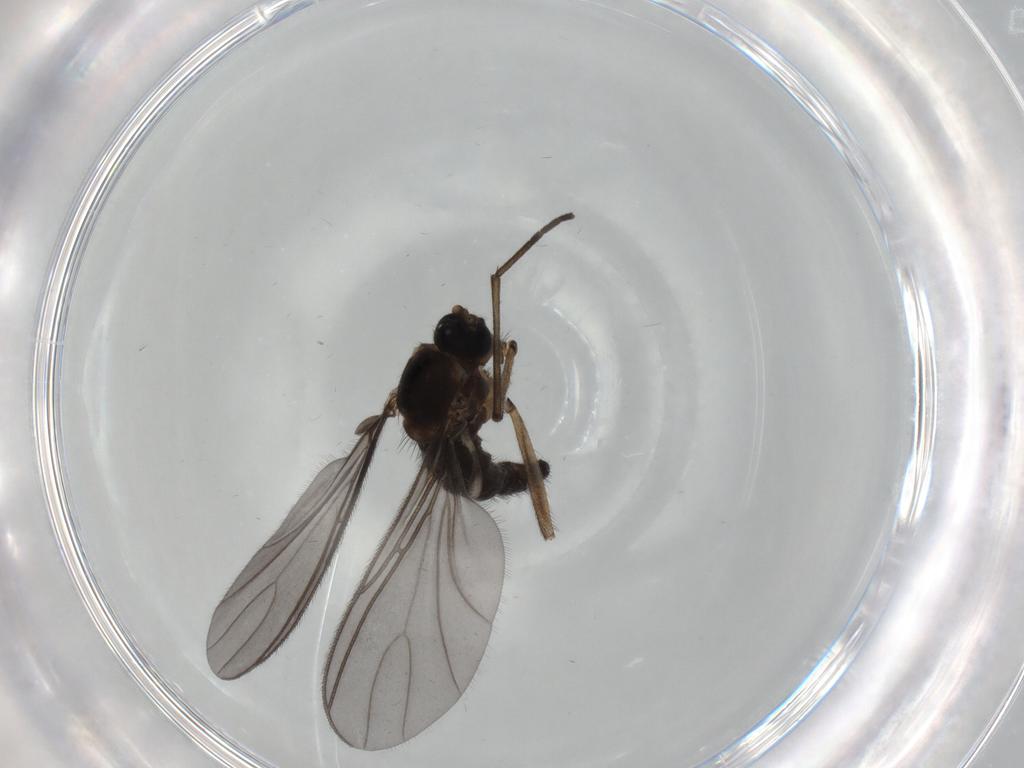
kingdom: Animalia
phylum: Arthropoda
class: Insecta
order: Diptera
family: Sciaridae
